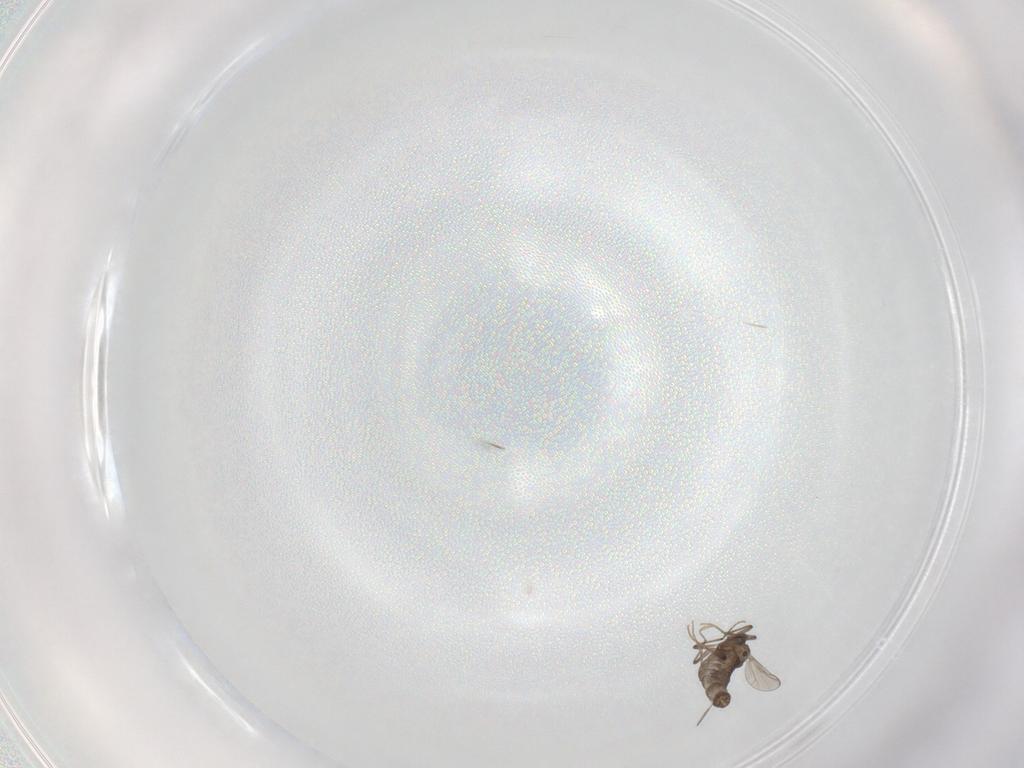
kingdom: Animalia
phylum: Arthropoda
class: Insecta
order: Diptera
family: Chironomidae
